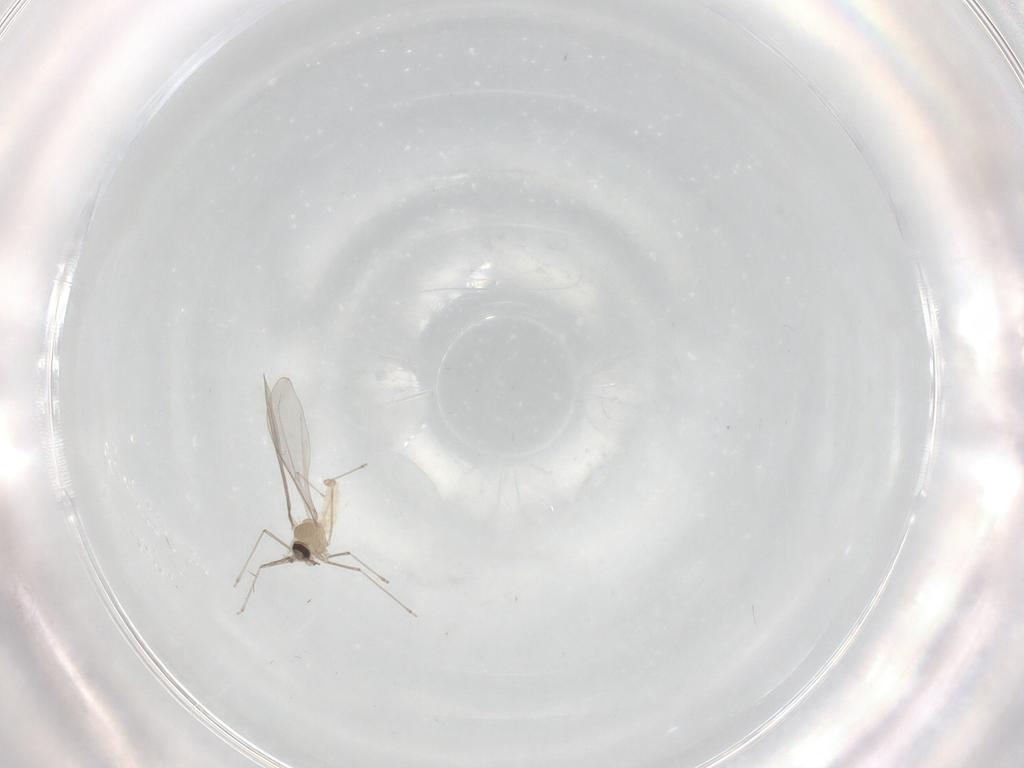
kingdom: Animalia
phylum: Arthropoda
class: Insecta
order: Diptera
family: Cecidomyiidae
